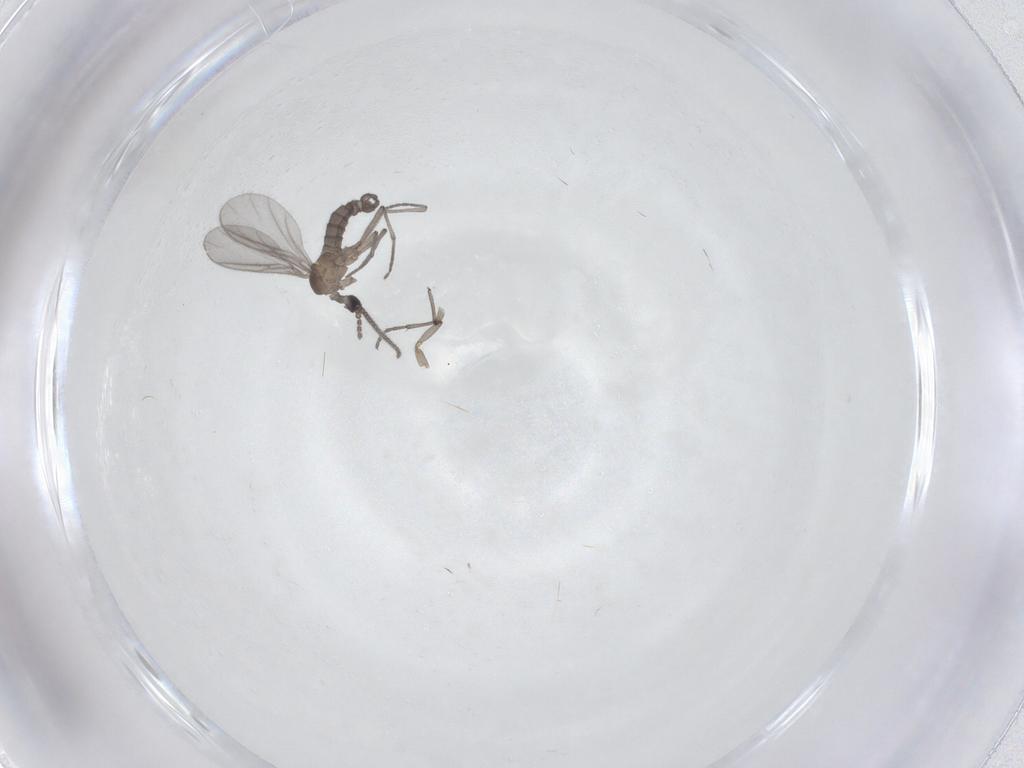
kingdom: Animalia
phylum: Arthropoda
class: Insecta
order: Diptera
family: Sciaridae
